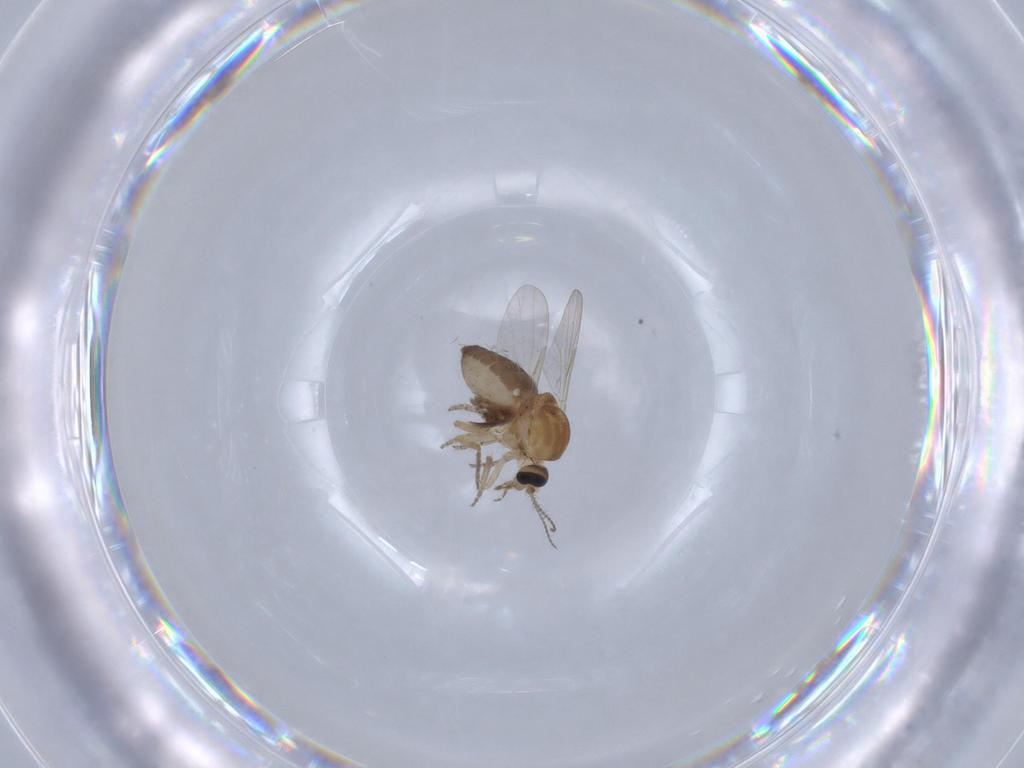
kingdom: Animalia
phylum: Arthropoda
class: Insecta
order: Diptera
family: Ceratopogonidae
